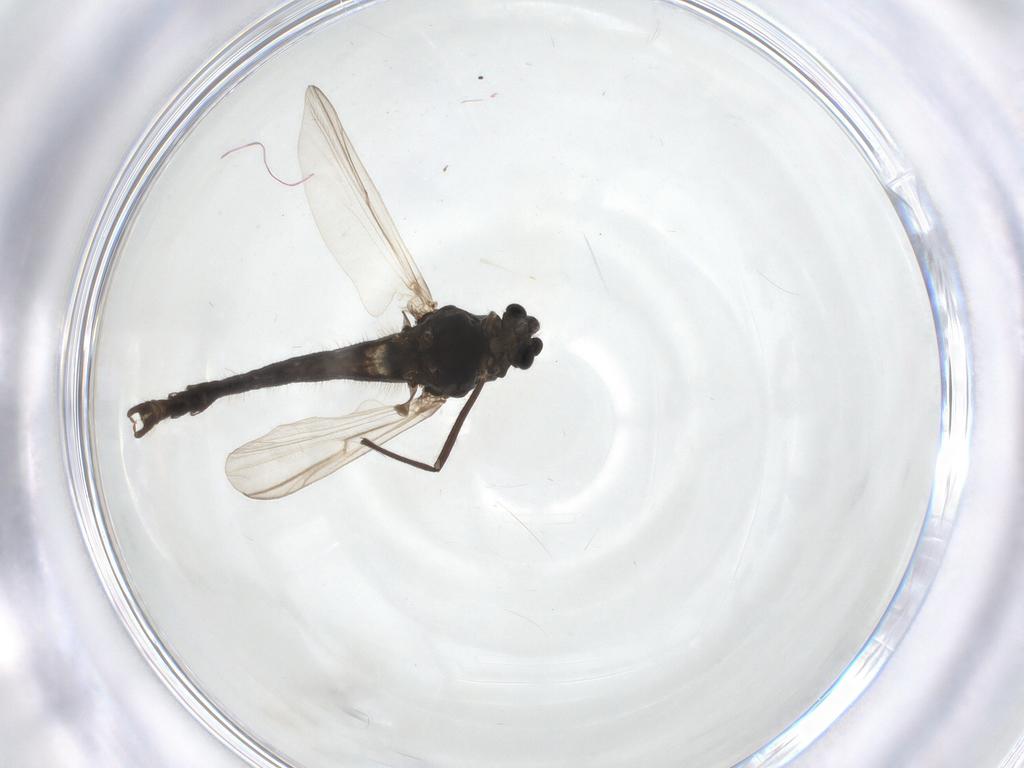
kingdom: Animalia
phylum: Arthropoda
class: Insecta
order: Diptera
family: Chironomidae
